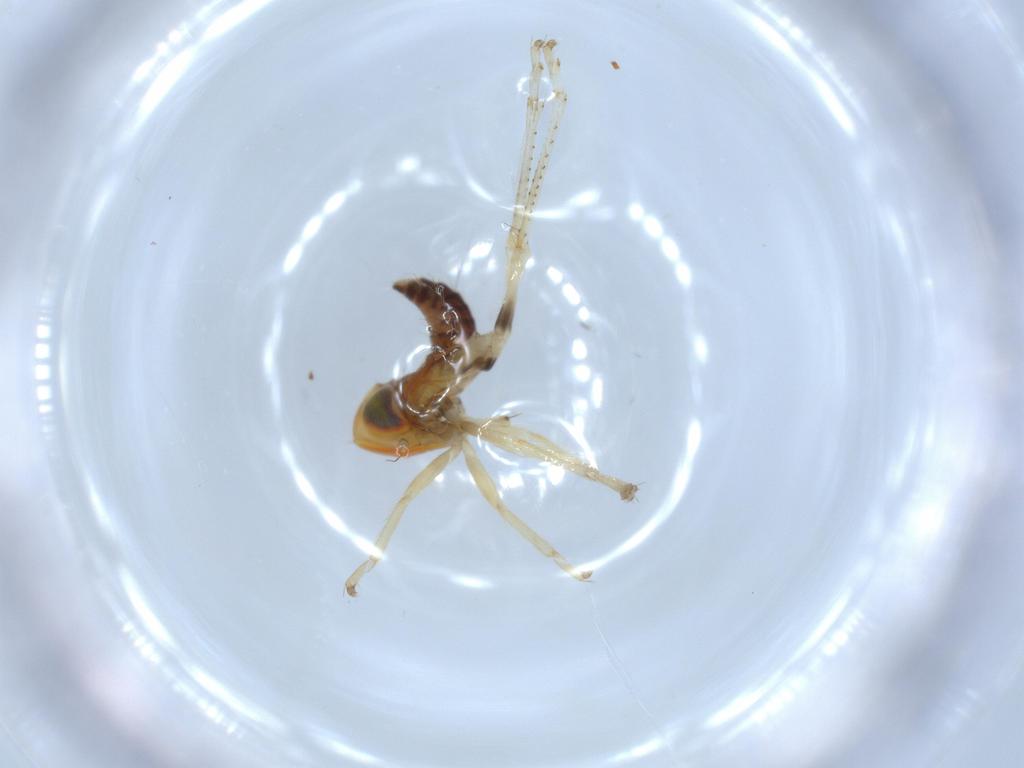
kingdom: Animalia
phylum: Arthropoda
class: Insecta
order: Hemiptera
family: Cicadellidae
